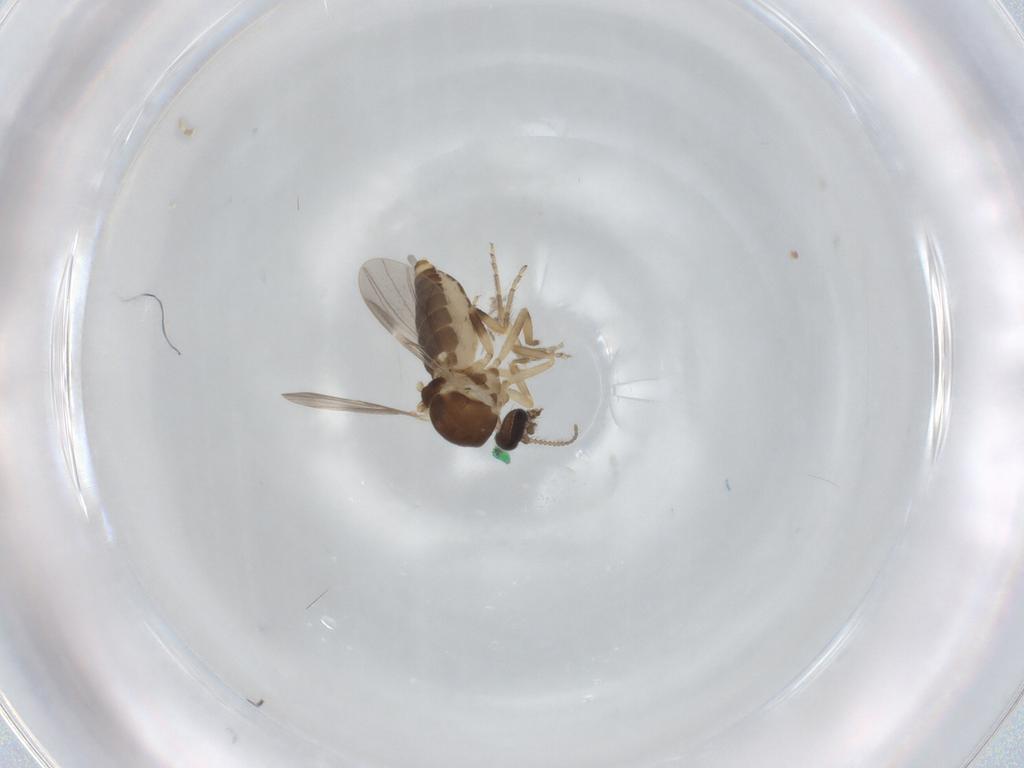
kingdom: Animalia
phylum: Arthropoda
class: Insecta
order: Diptera
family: Ceratopogonidae
